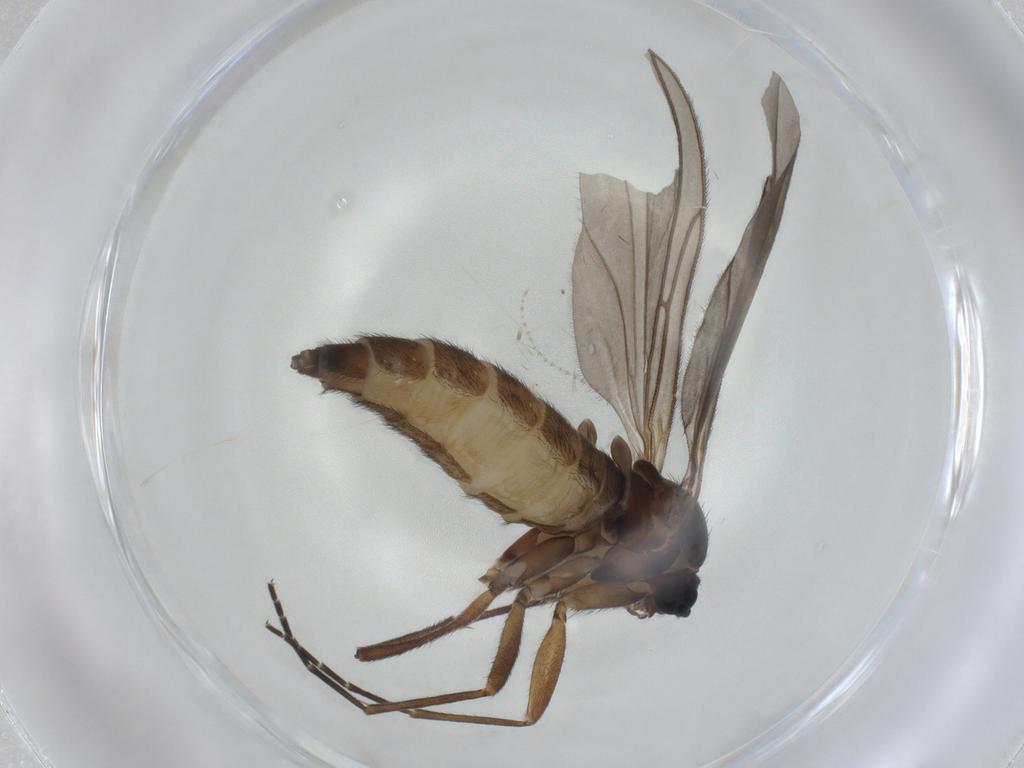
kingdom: Animalia
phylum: Arthropoda
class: Insecta
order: Diptera
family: Sciaridae
